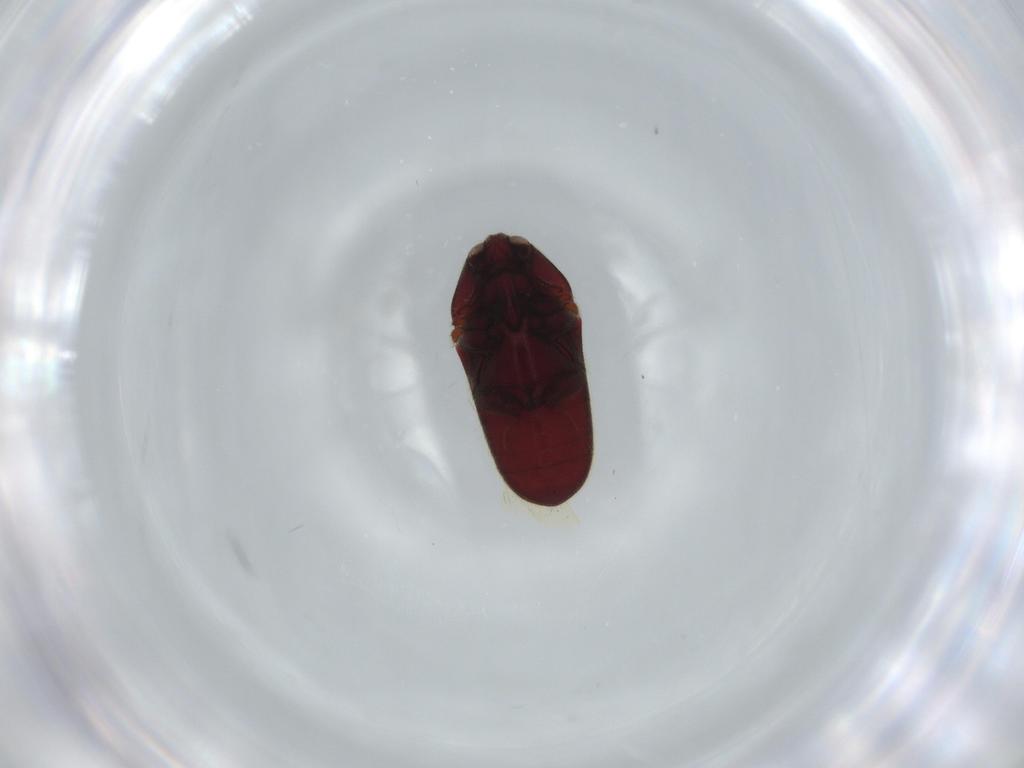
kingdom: Animalia
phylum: Arthropoda
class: Insecta
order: Coleoptera
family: Throscidae
